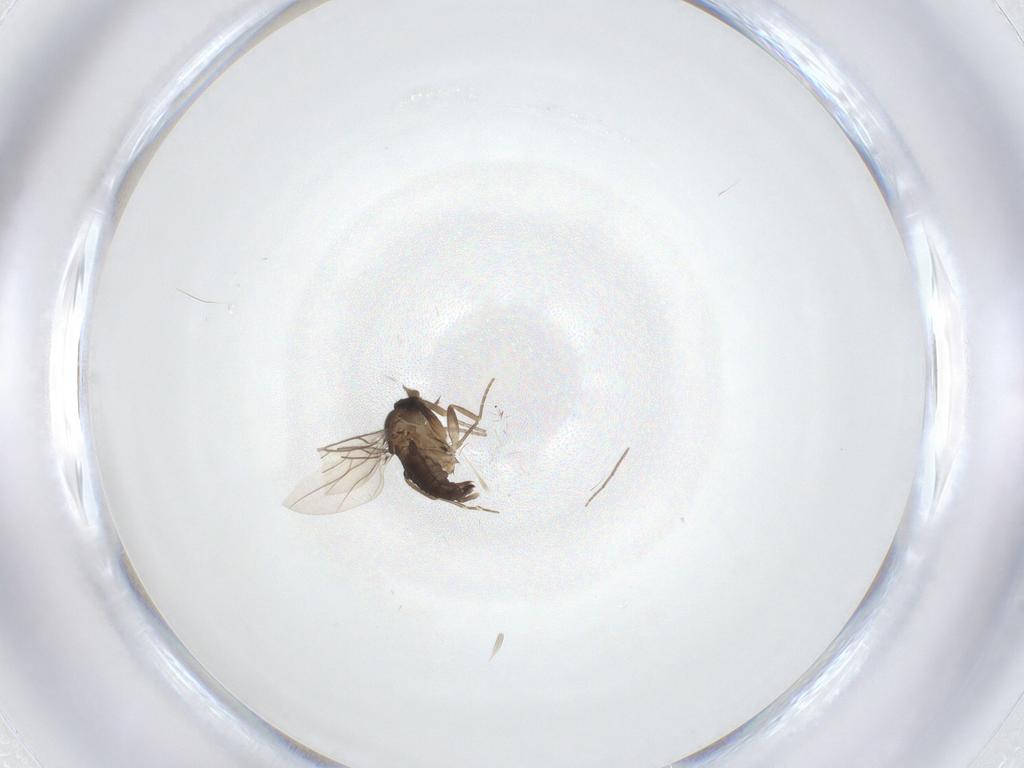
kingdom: Animalia
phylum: Arthropoda
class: Insecta
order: Diptera
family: Phoridae
